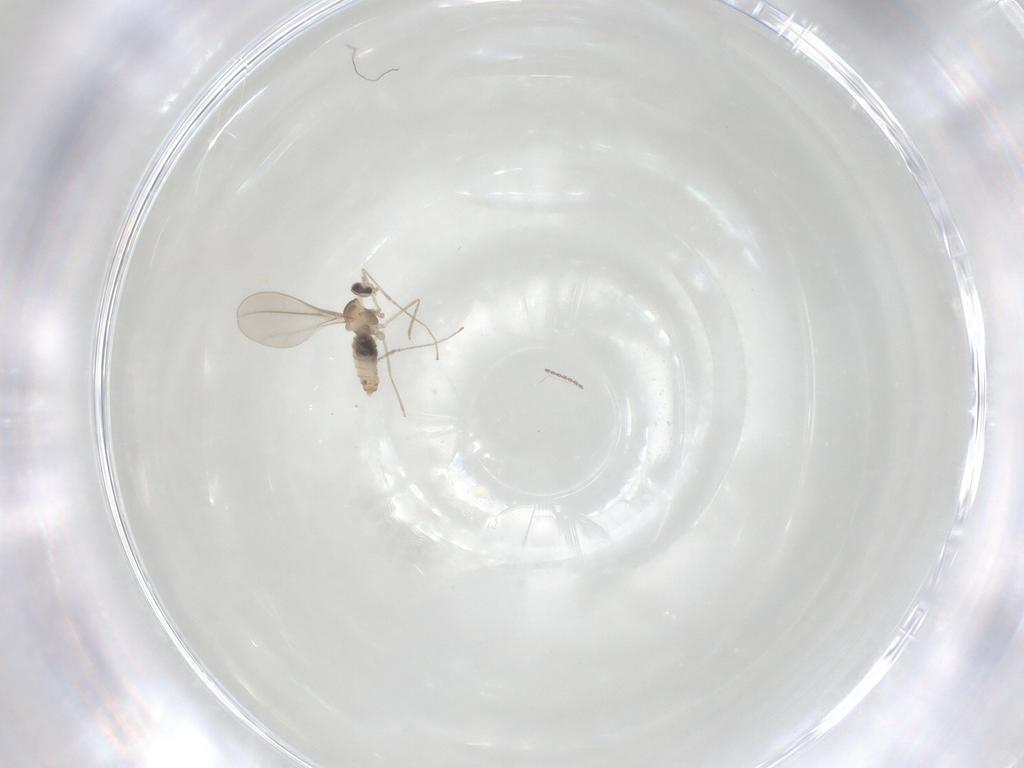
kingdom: Animalia
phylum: Arthropoda
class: Insecta
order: Diptera
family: Cecidomyiidae
